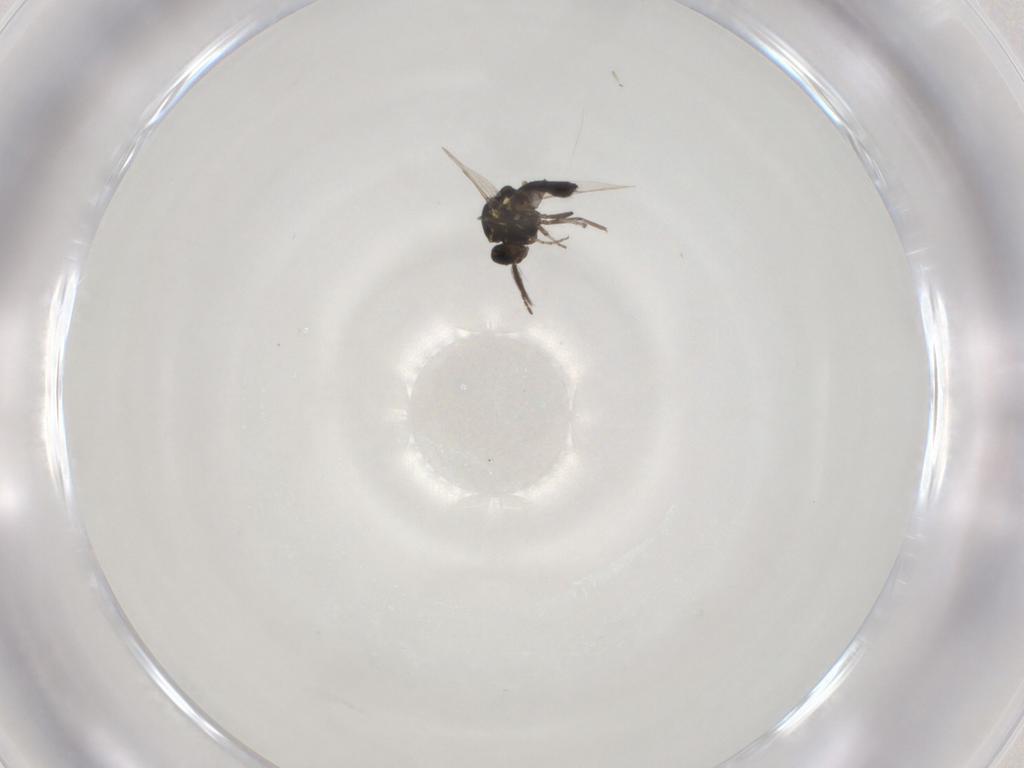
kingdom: Animalia
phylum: Arthropoda
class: Insecta
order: Diptera
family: Ceratopogonidae
